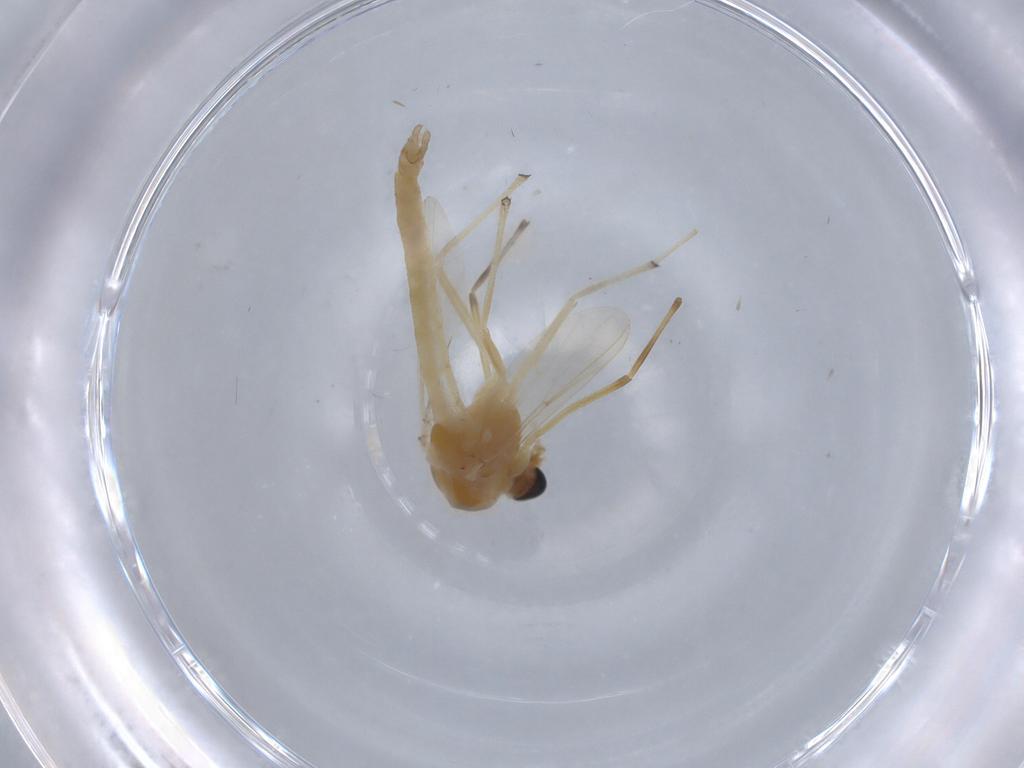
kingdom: Animalia
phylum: Arthropoda
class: Insecta
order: Diptera
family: Chironomidae
